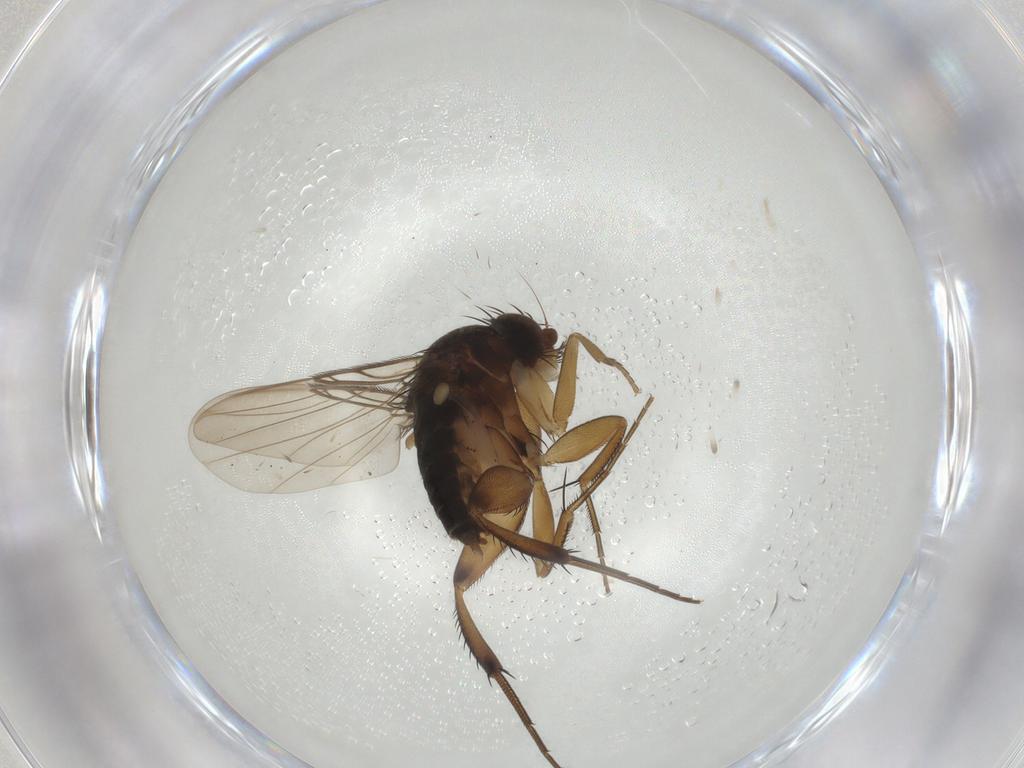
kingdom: Animalia
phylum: Arthropoda
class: Insecta
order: Diptera
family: Phoridae
